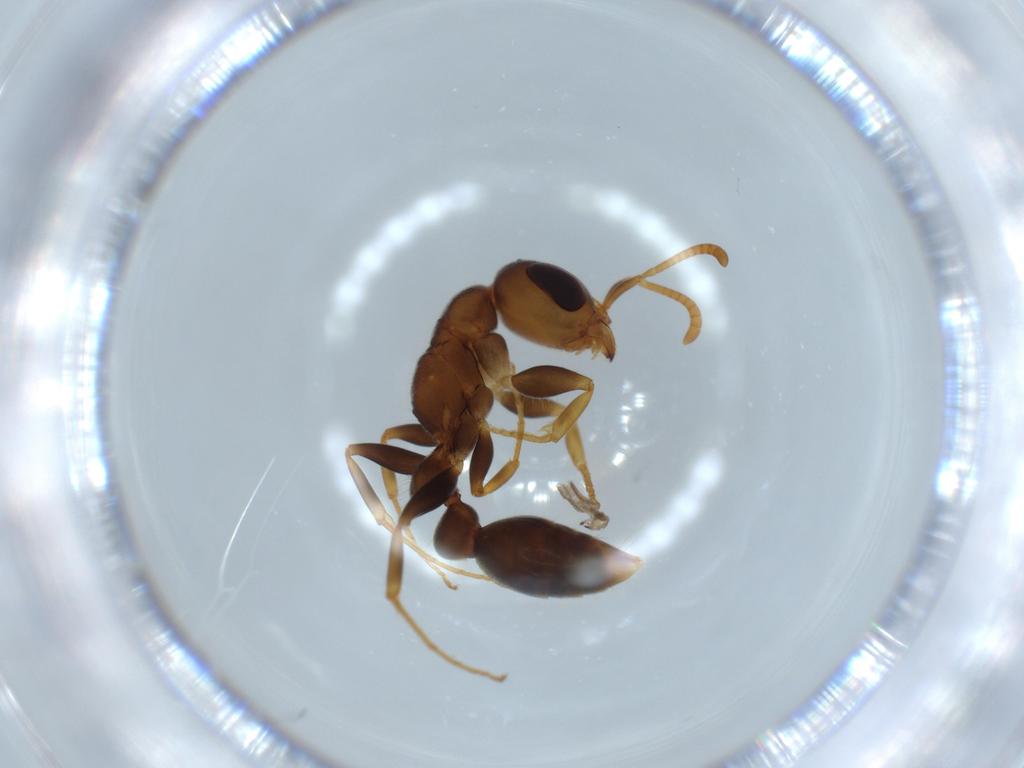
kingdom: Animalia
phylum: Arthropoda
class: Insecta
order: Hymenoptera
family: Formicidae
